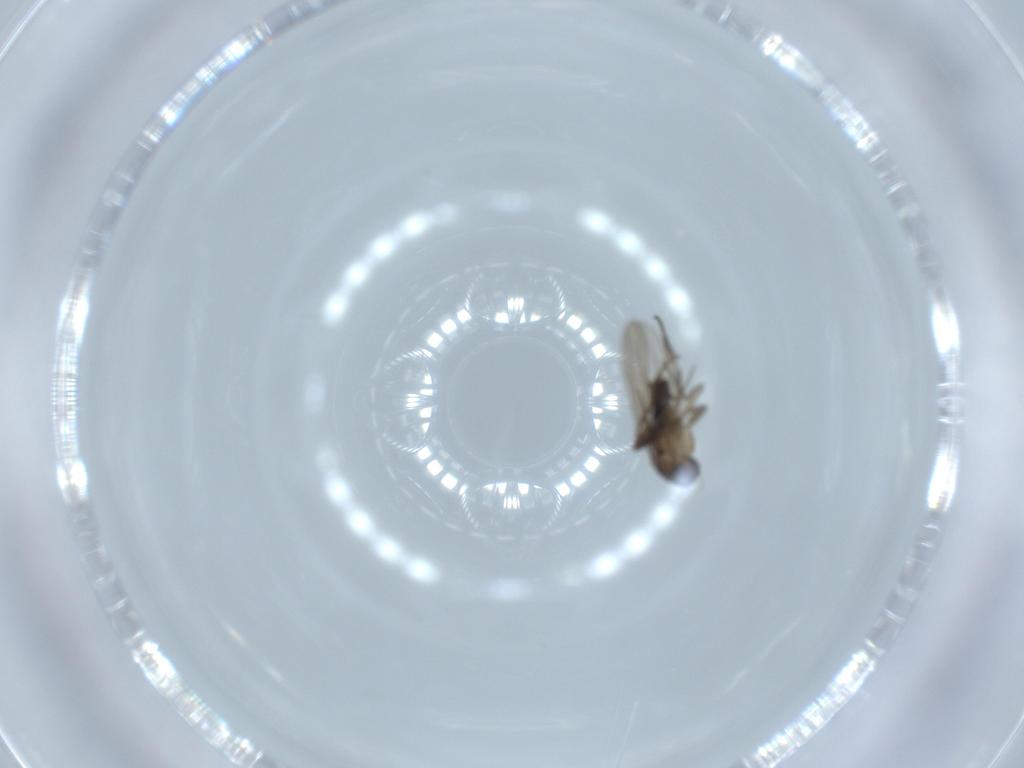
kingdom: Animalia
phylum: Arthropoda
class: Insecta
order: Diptera
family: Phoridae
